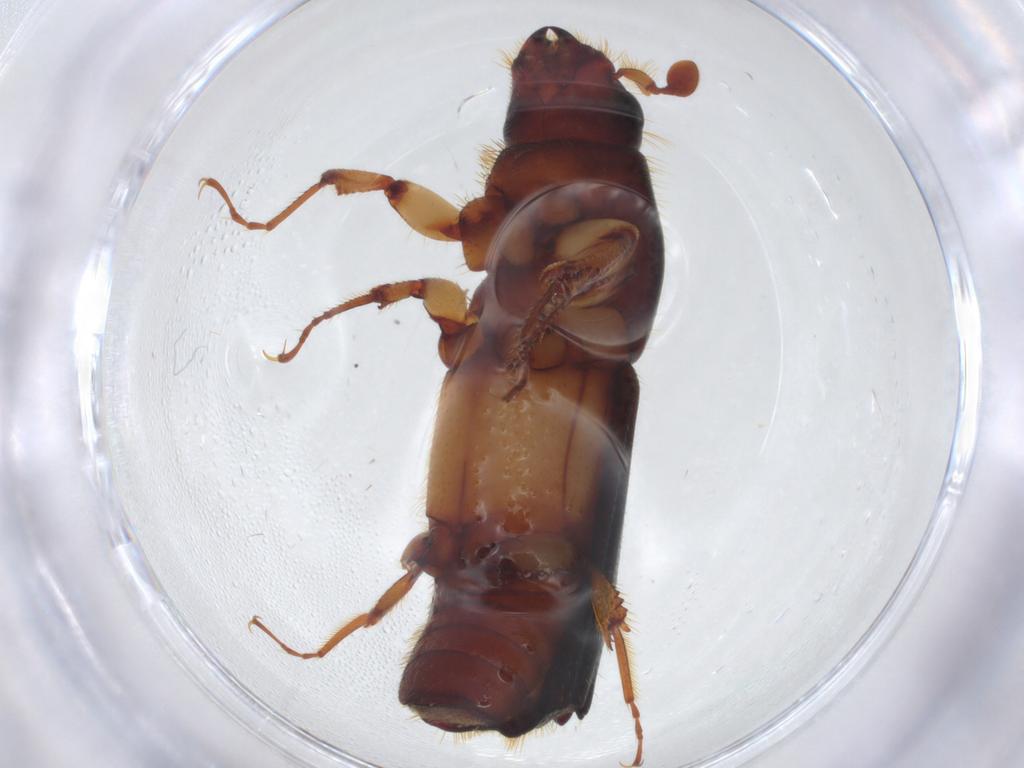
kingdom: Animalia
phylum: Arthropoda
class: Insecta
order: Coleoptera
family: Curculionidae
